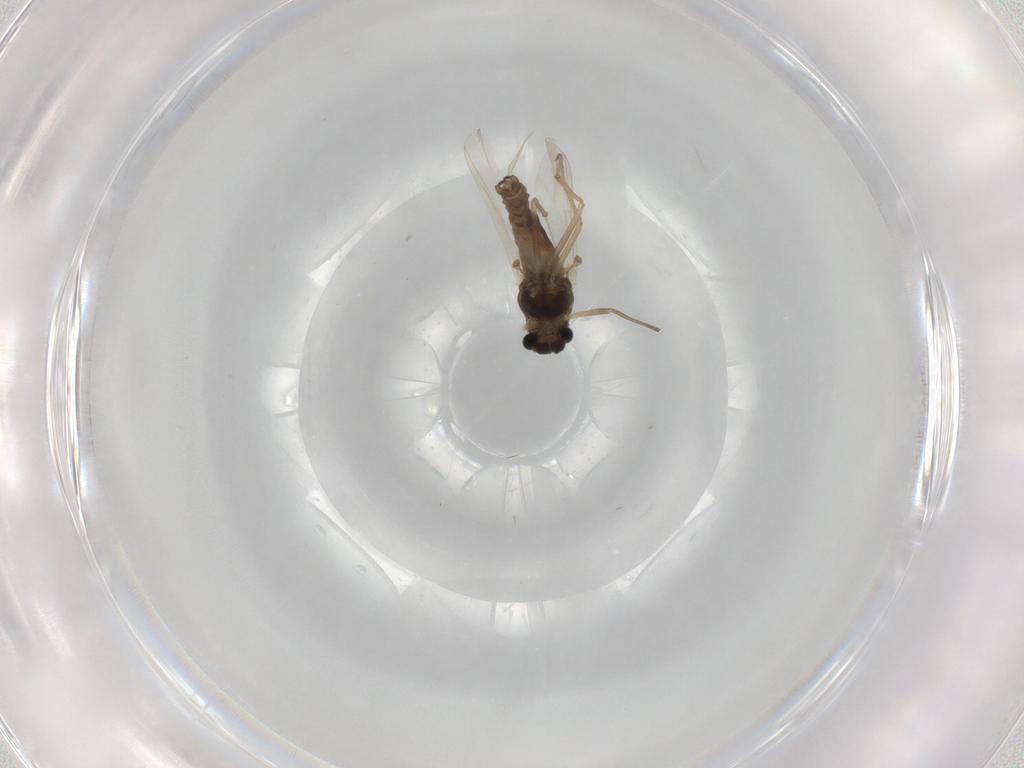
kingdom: Animalia
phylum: Arthropoda
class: Insecta
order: Diptera
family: Chironomidae
